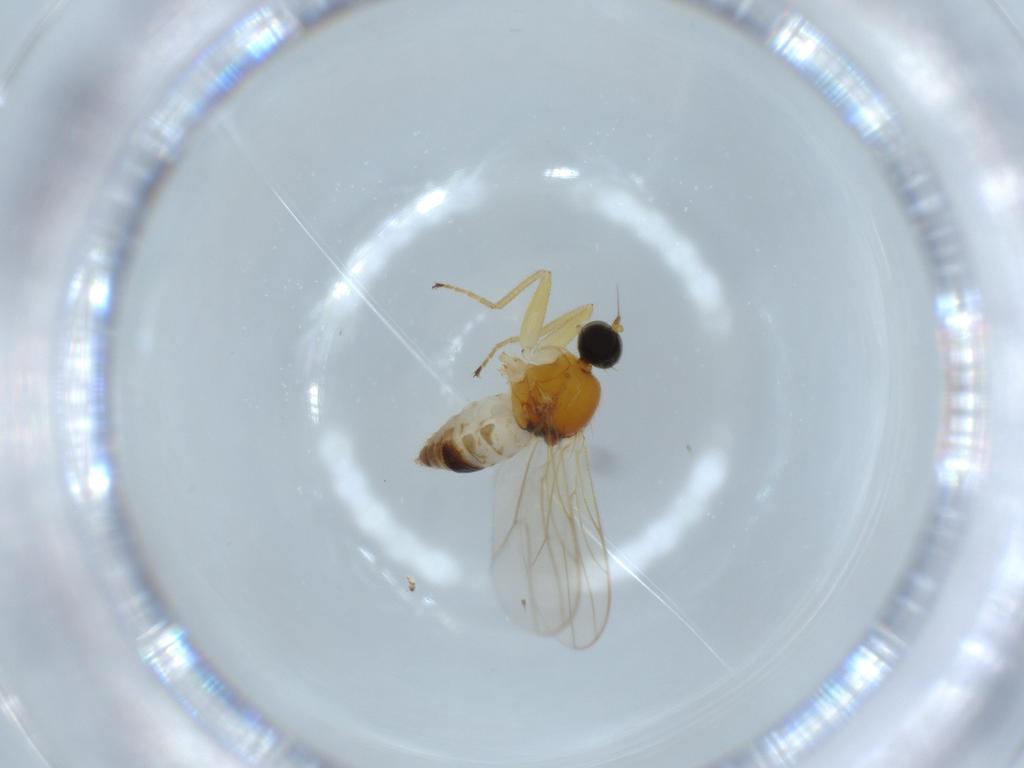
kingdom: Animalia
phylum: Arthropoda
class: Insecta
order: Diptera
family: Hybotidae
